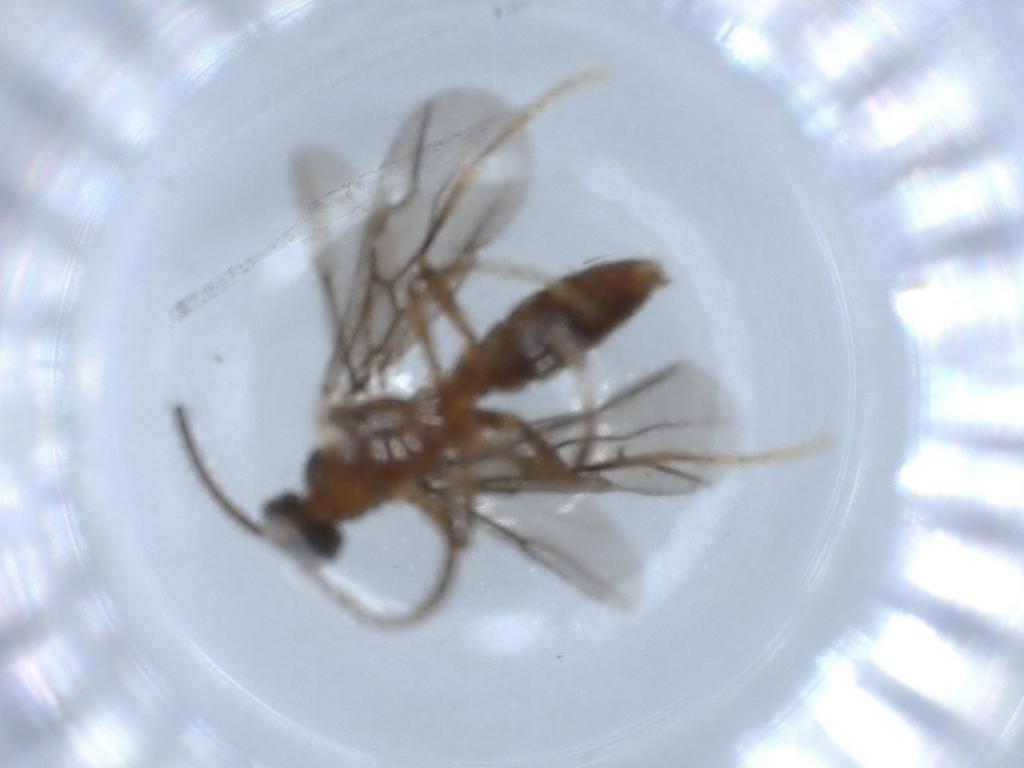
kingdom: Animalia
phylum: Arthropoda
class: Insecta
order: Hymenoptera
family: Formicidae
